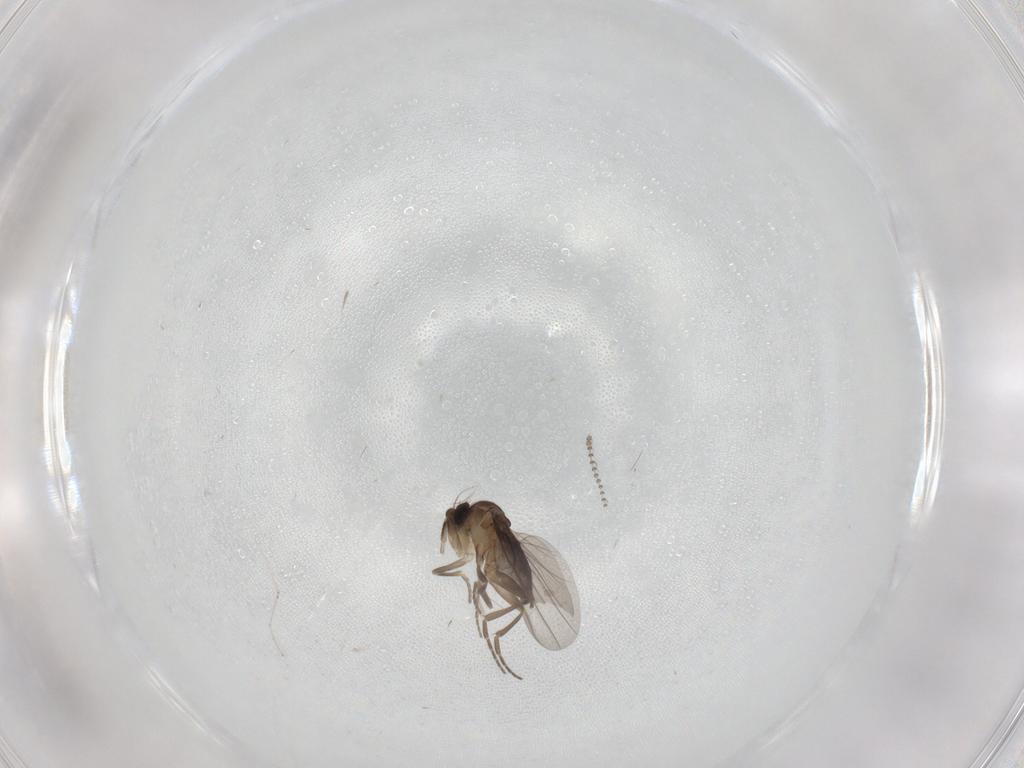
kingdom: Animalia
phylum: Arthropoda
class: Insecta
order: Diptera
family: Psychodidae
